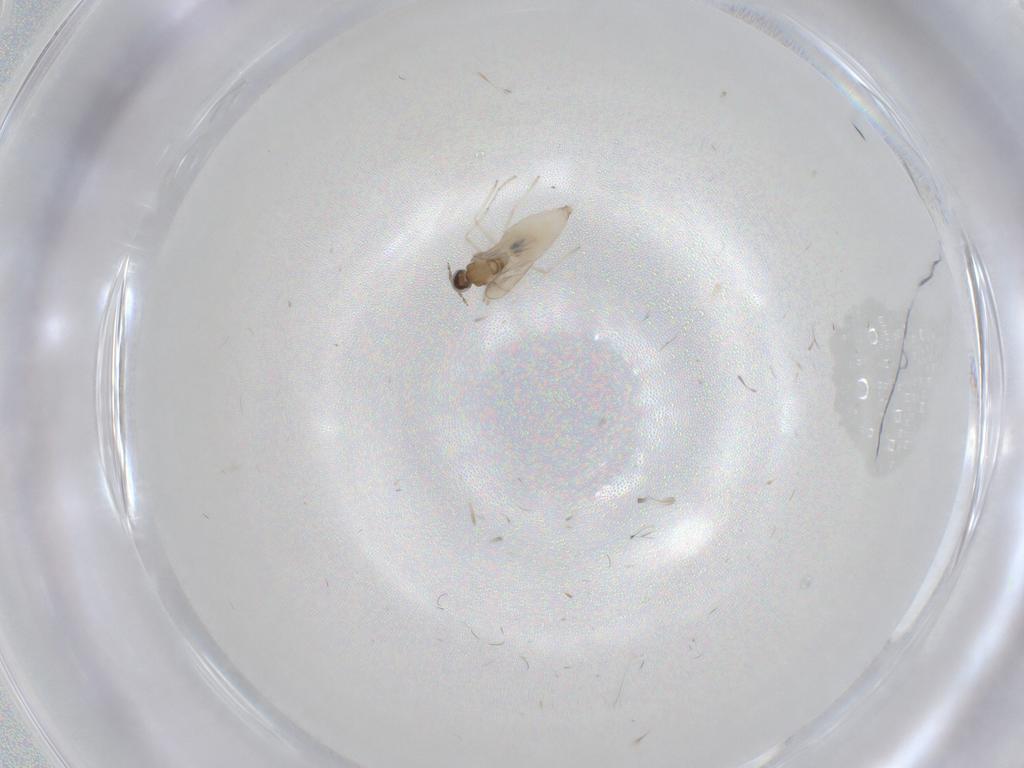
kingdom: Animalia
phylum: Arthropoda
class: Insecta
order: Diptera
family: Cecidomyiidae
